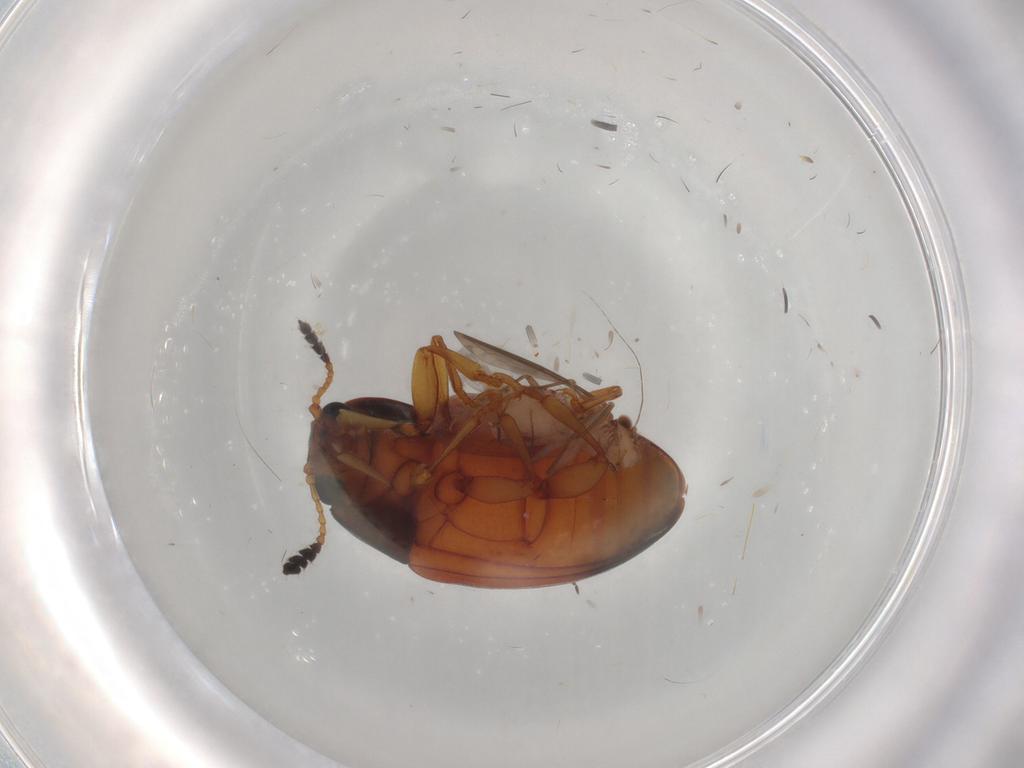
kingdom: Animalia
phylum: Arthropoda
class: Insecta
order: Coleoptera
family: Erotylidae
